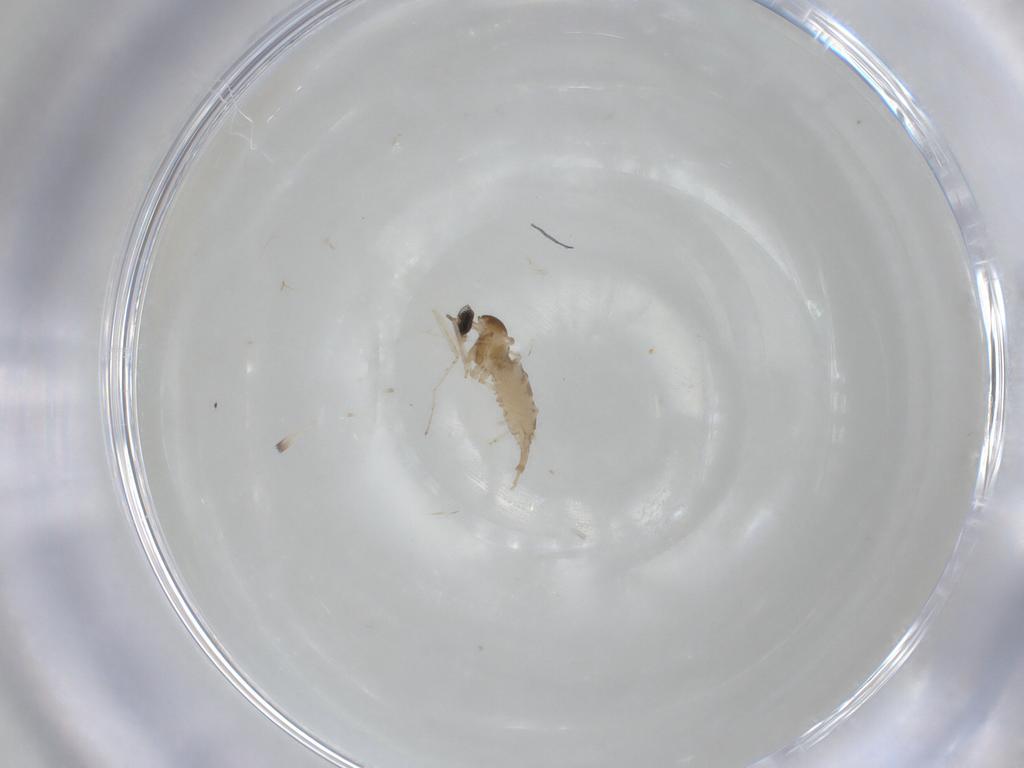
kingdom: Animalia
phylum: Arthropoda
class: Insecta
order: Diptera
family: Cecidomyiidae
